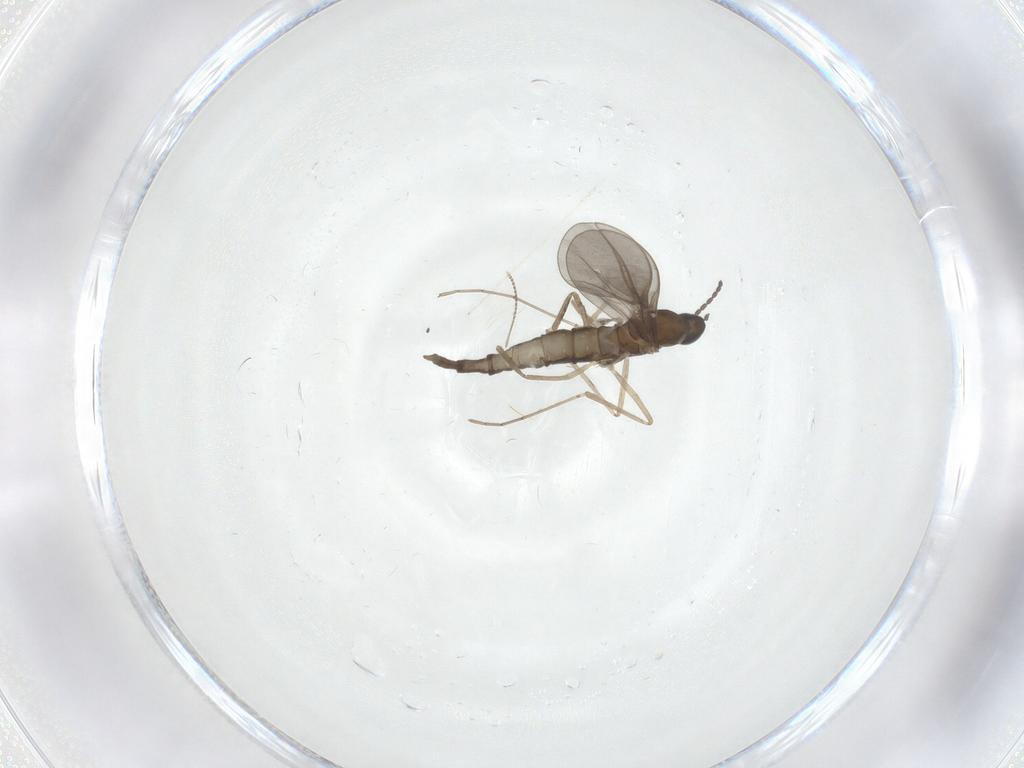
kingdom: Animalia
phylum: Arthropoda
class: Insecta
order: Diptera
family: Cecidomyiidae
